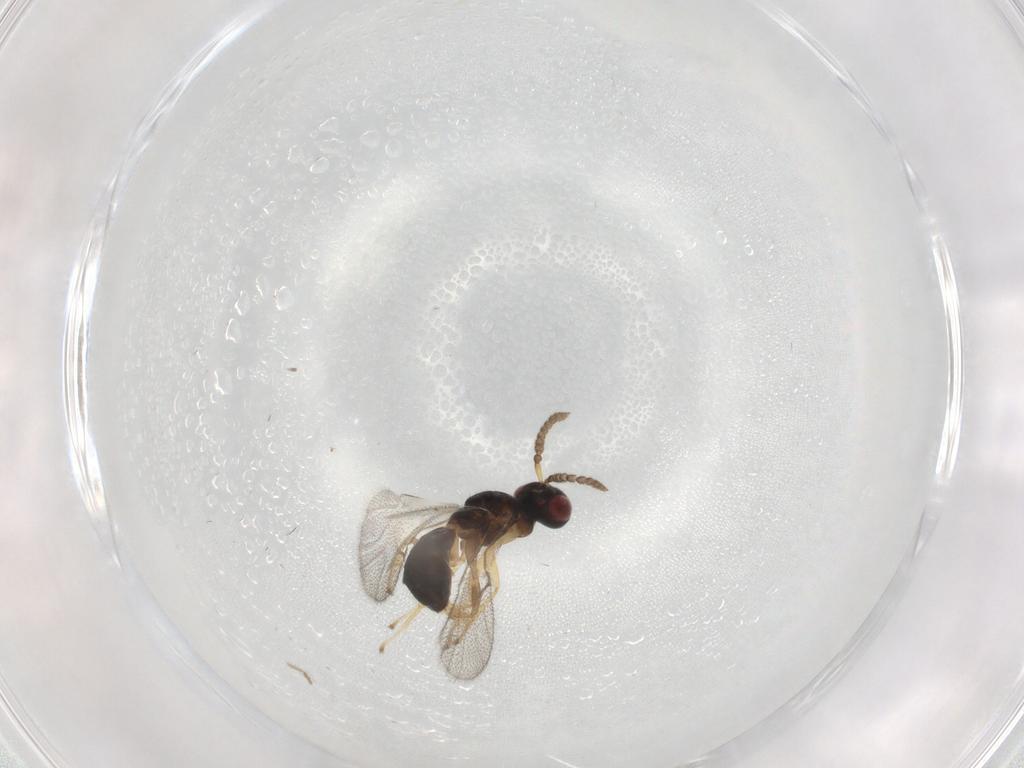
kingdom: Animalia
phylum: Arthropoda
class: Insecta
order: Hymenoptera
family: Agaonidae
